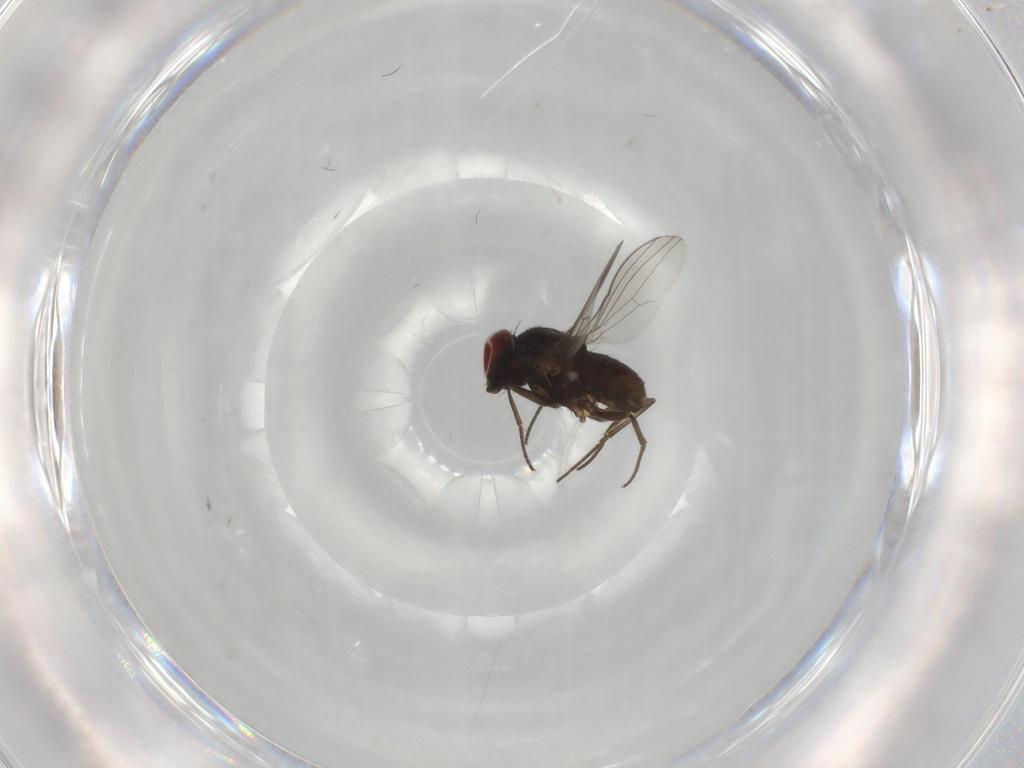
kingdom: Animalia
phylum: Arthropoda
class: Insecta
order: Diptera
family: Dolichopodidae
